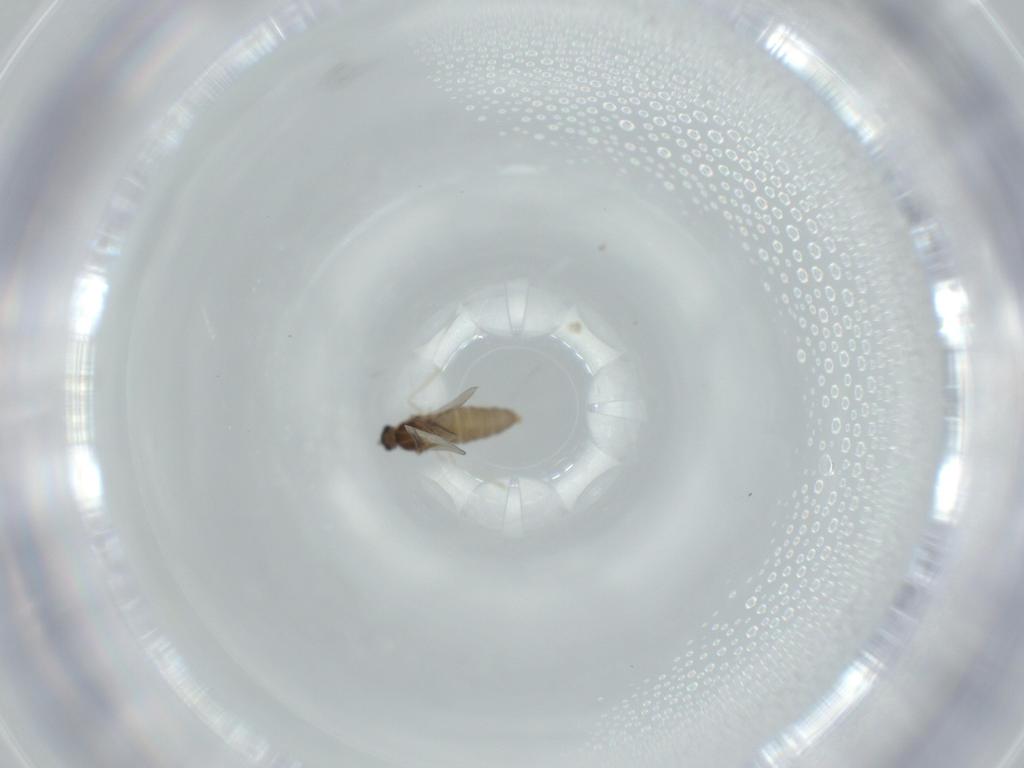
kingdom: Animalia
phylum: Arthropoda
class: Insecta
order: Diptera
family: Cecidomyiidae
